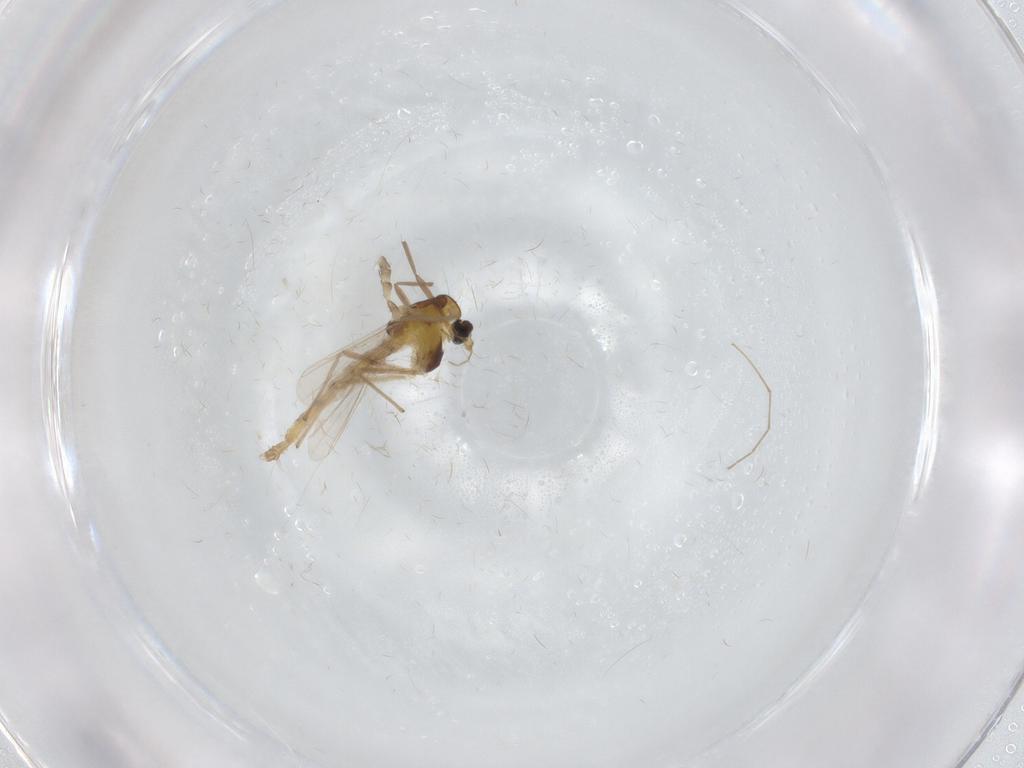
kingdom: Animalia
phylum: Arthropoda
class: Insecta
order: Diptera
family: Chironomidae
